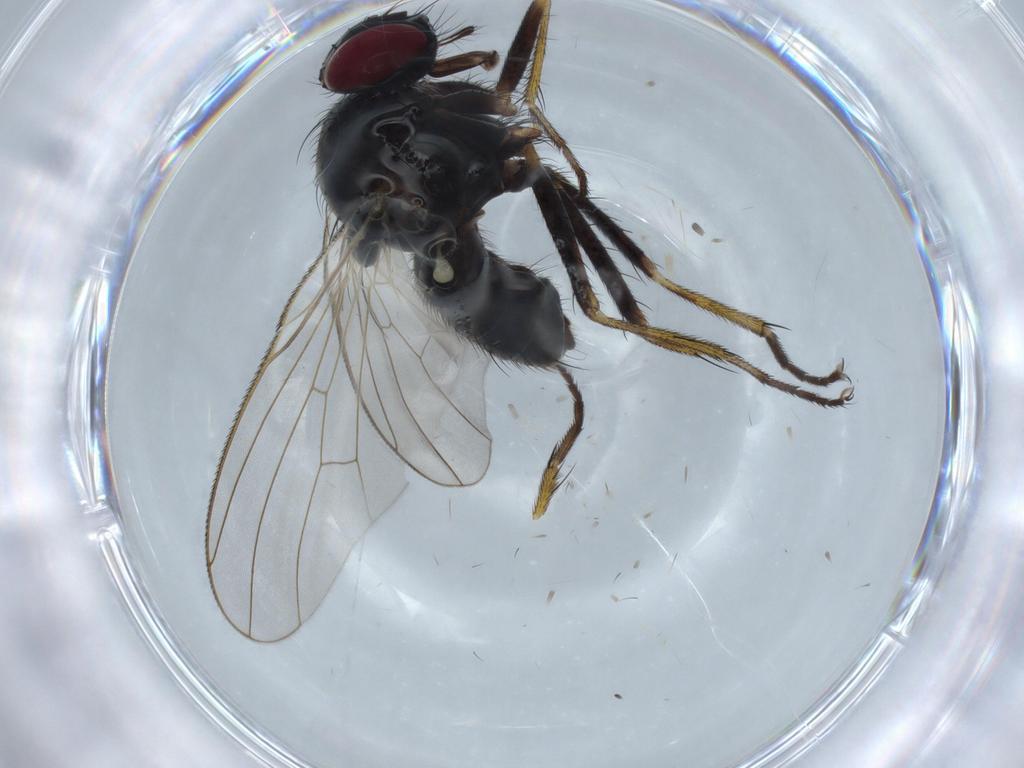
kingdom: Animalia
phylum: Arthropoda
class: Insecta
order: Diptera
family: Muscidae
